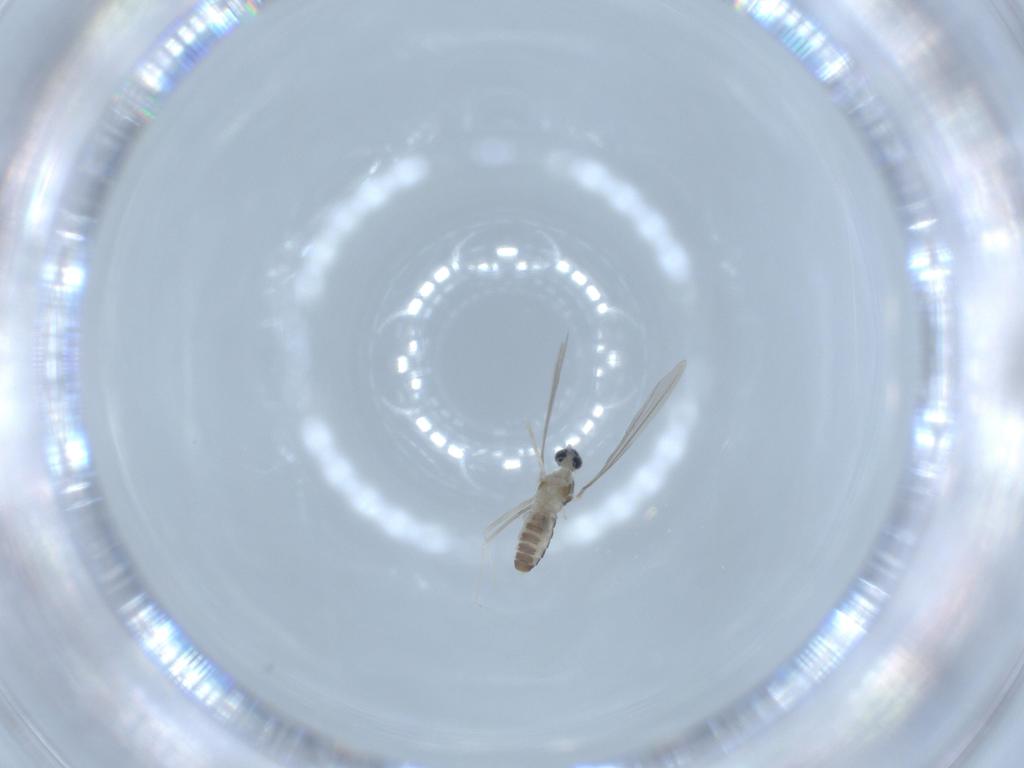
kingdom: Animalia
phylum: Arthropoda
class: Insecta
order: Diptera
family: Cecidomyiidae
